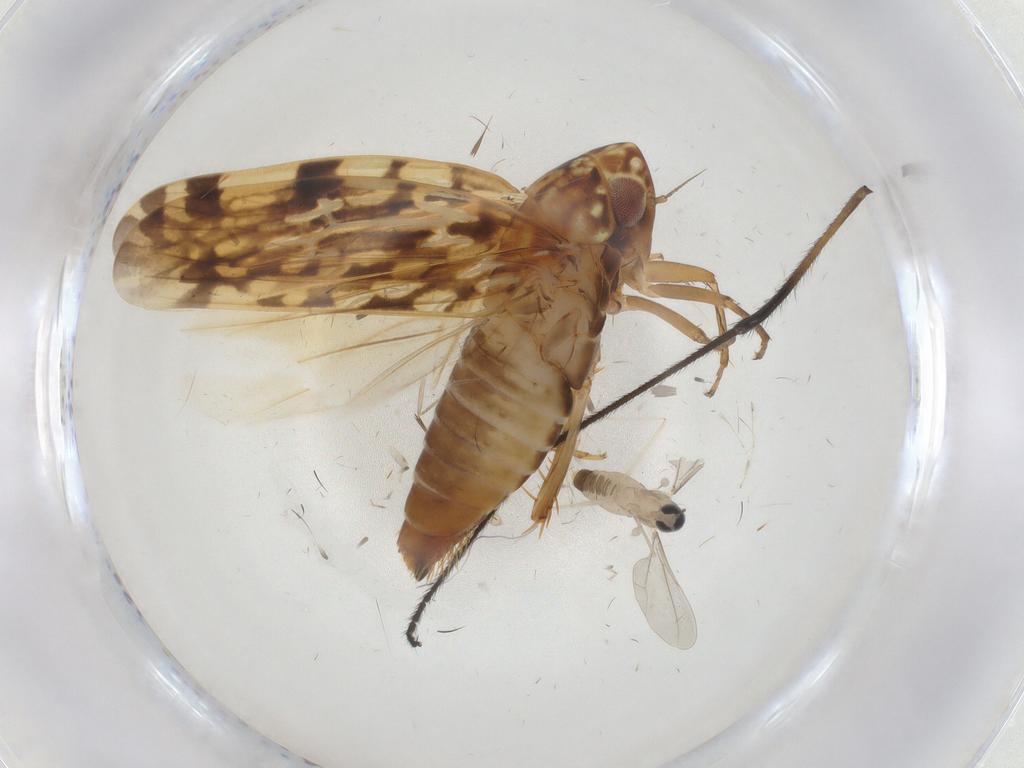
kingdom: Animalia
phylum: Arthropoda
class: Insecta
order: Hemiptera
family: Cicadellidae
